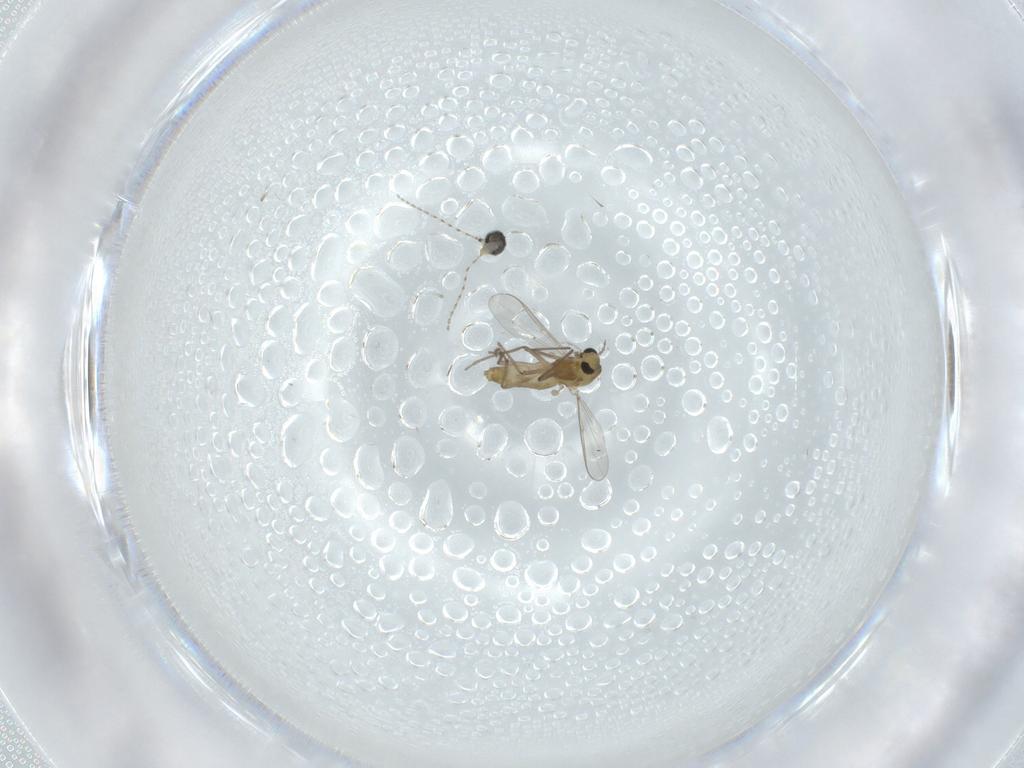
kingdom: Animalia
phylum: Arthropoda
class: Insecta
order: Diptera
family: Cecidomyiidae
